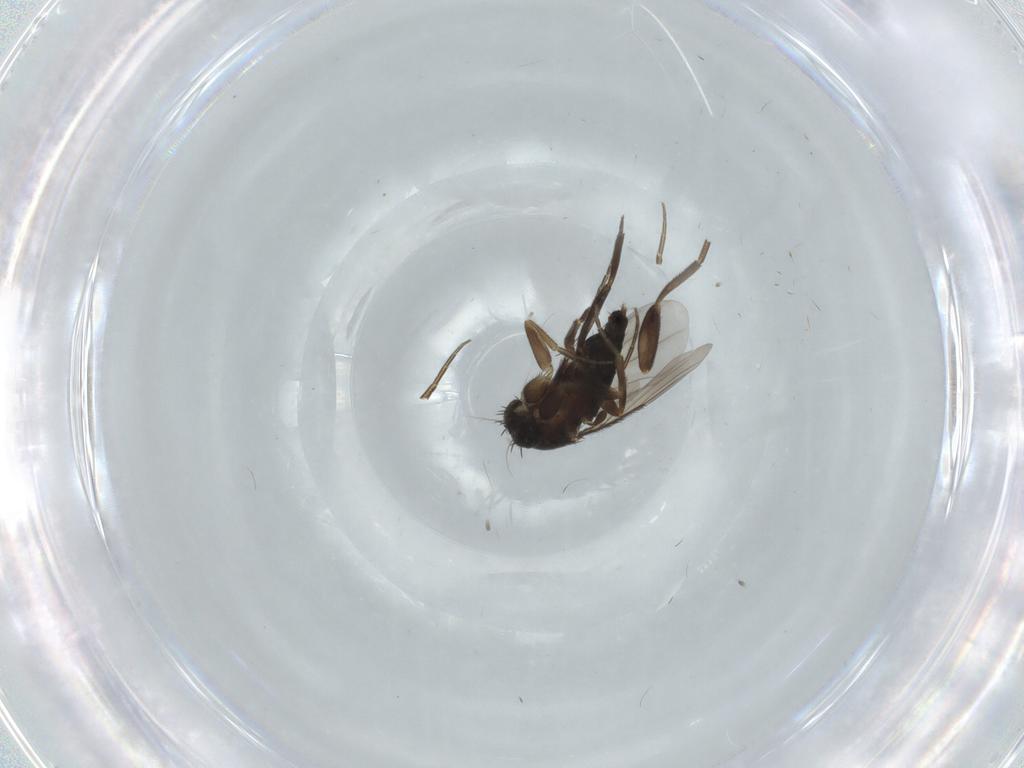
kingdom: Animalia
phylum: Arthropoda
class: Insecta
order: Diptera
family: Phoridae
